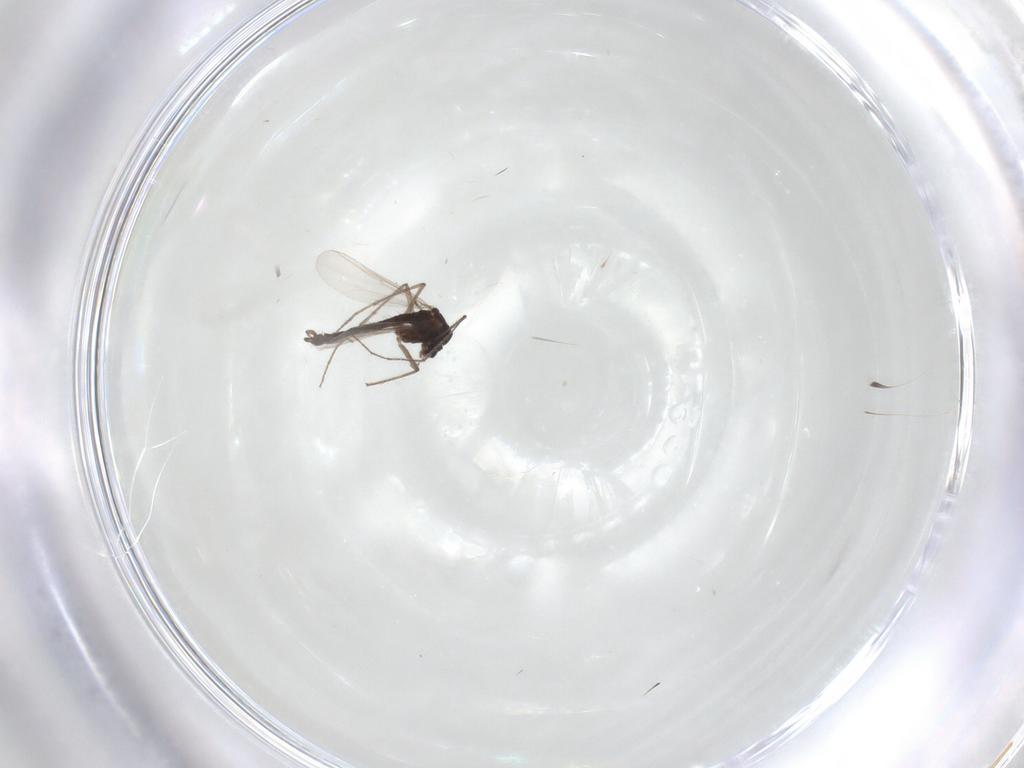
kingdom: Animalia
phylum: Arthropoda
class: Insecta
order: Diptera
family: Chironomidae
